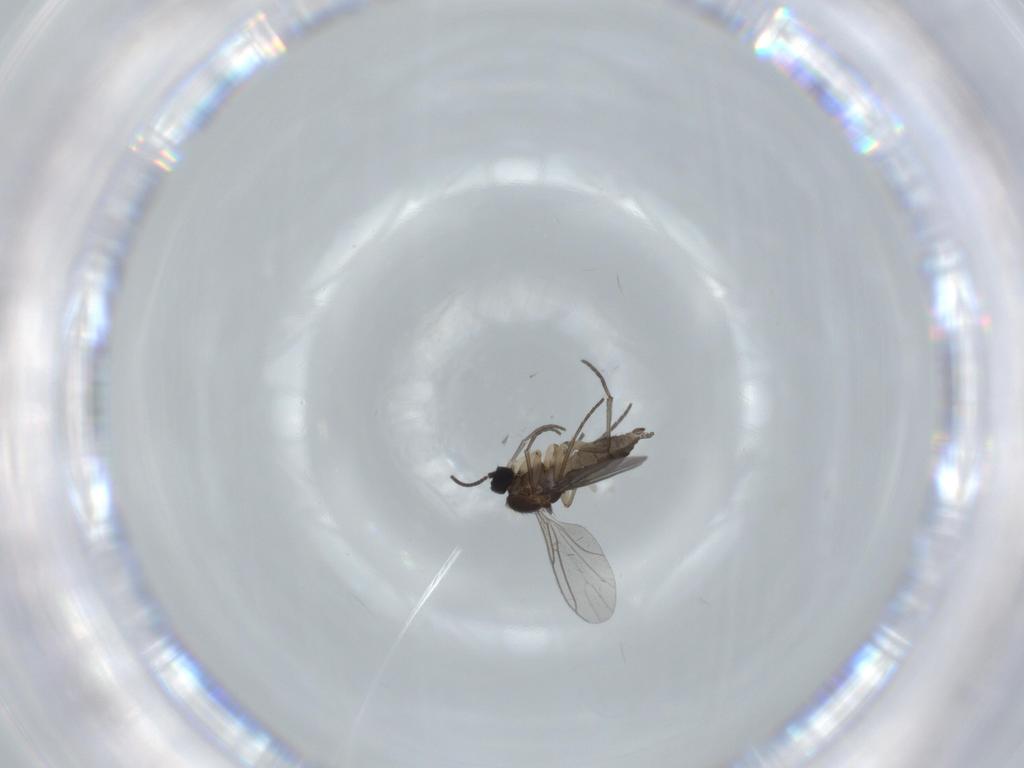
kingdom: Animalia
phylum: Arthropoda
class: Insecta
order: Diptera
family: Sciaridae
